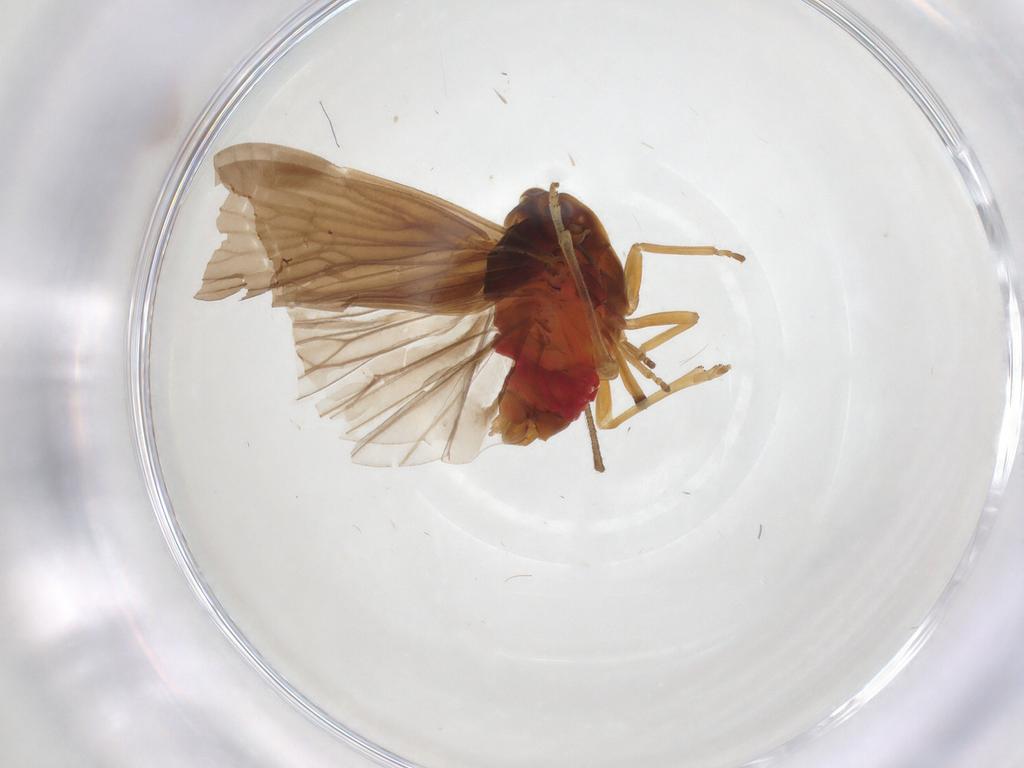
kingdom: Animalia
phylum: Arthropoda
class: Insecta
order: Hemiptera
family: Derbidae
